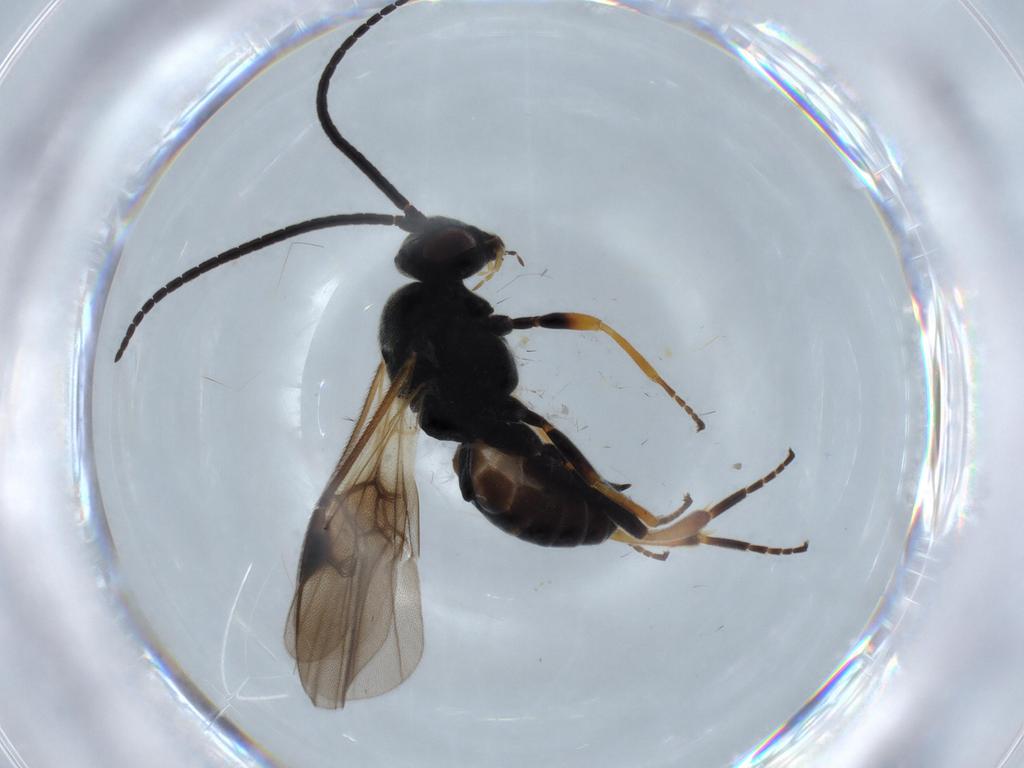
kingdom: Animalia
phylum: Arthropoda
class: Insecta
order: Hymenoptera
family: Braconidae
